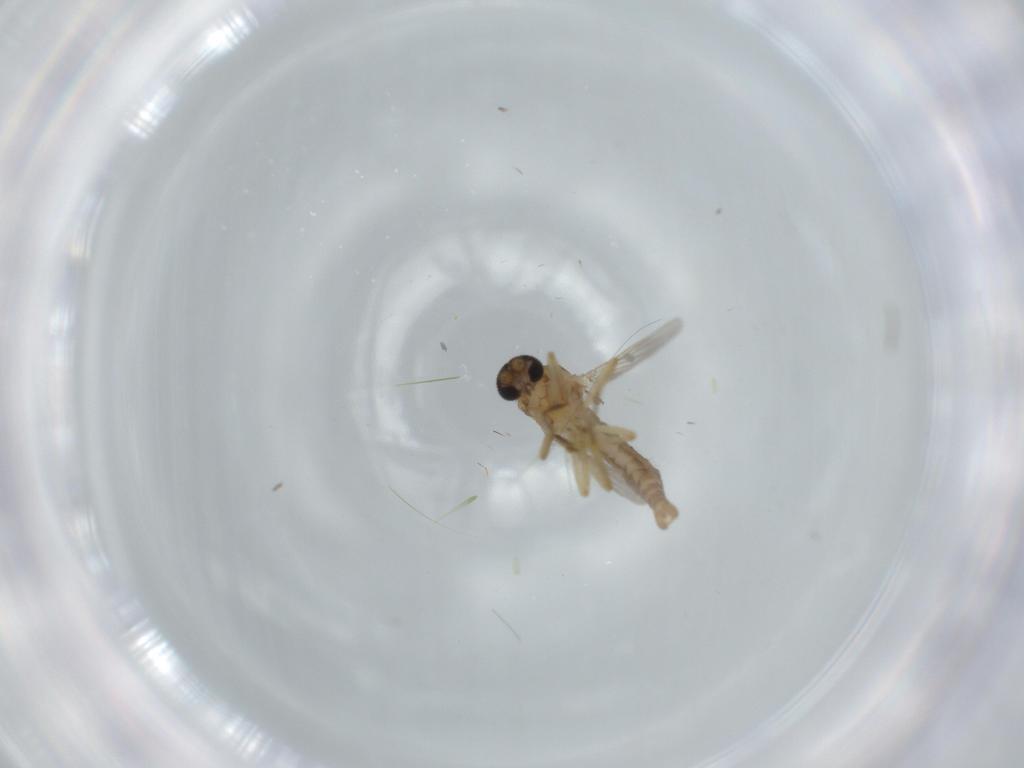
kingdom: Animalia
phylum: Arthropoda
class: Insecta
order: Diptera
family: Ceratopogonidae
